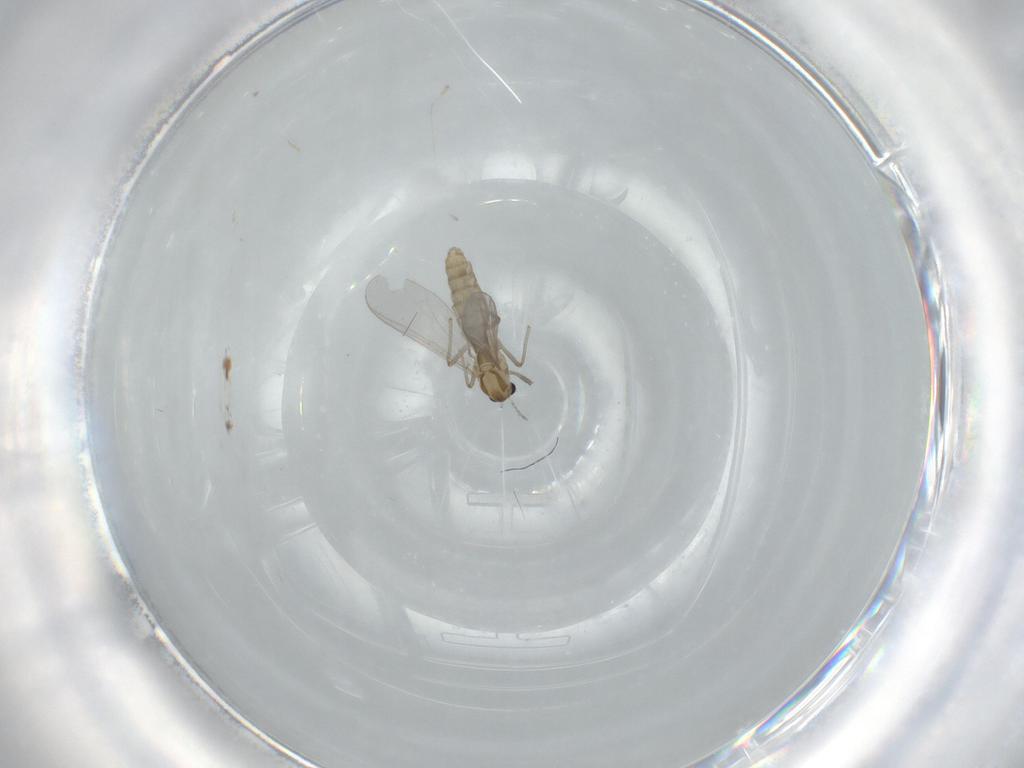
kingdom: Animalia
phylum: Arthropoda
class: Insecta
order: Diptera
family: Chironomidae
